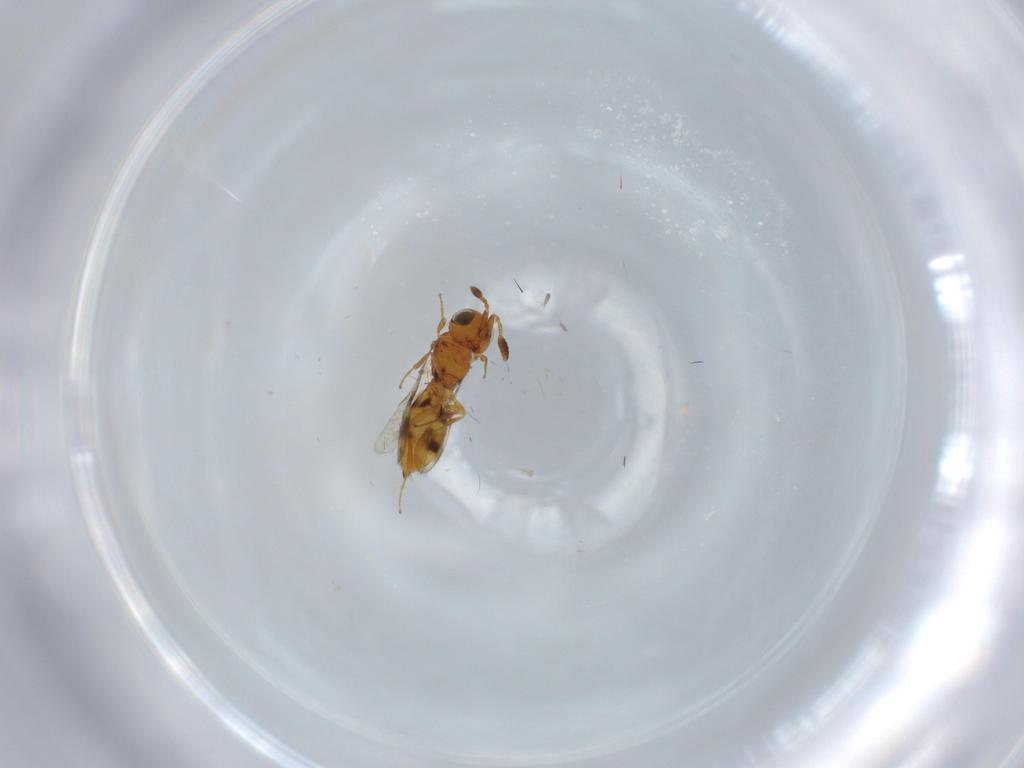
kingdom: Animalia
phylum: Arthropoda
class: Insecta
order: Hymenoptera
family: Scelionidae
